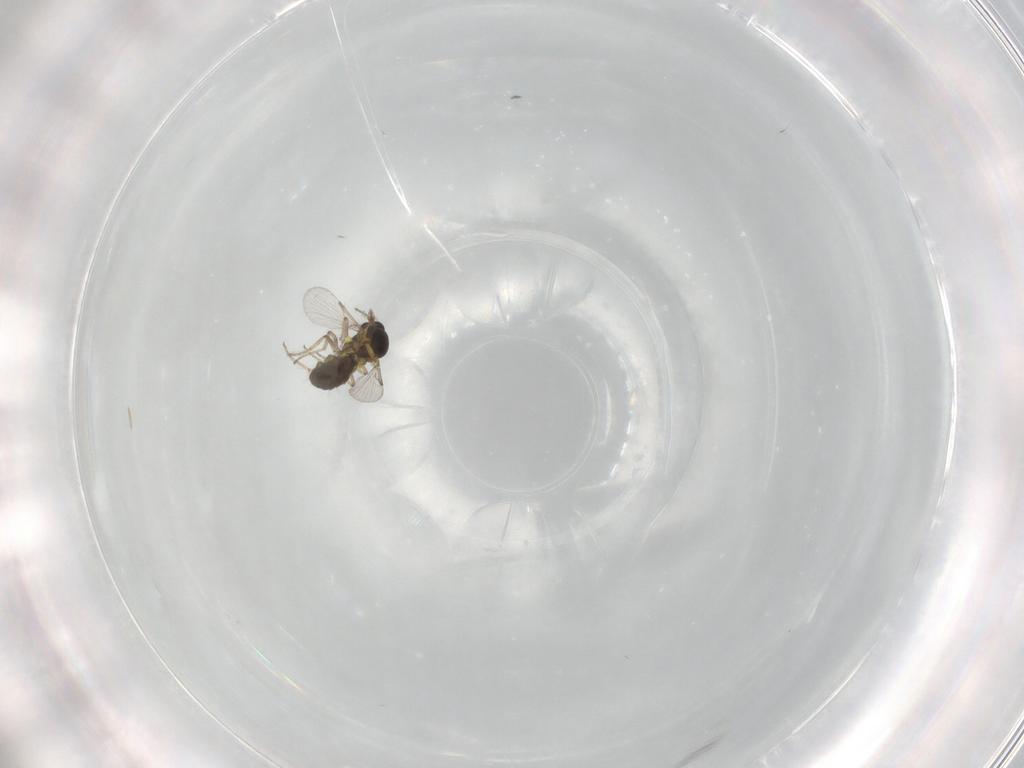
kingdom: Animalia
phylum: Arthropoda
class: Insecta
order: Diptera
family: Ceratopogonidae
